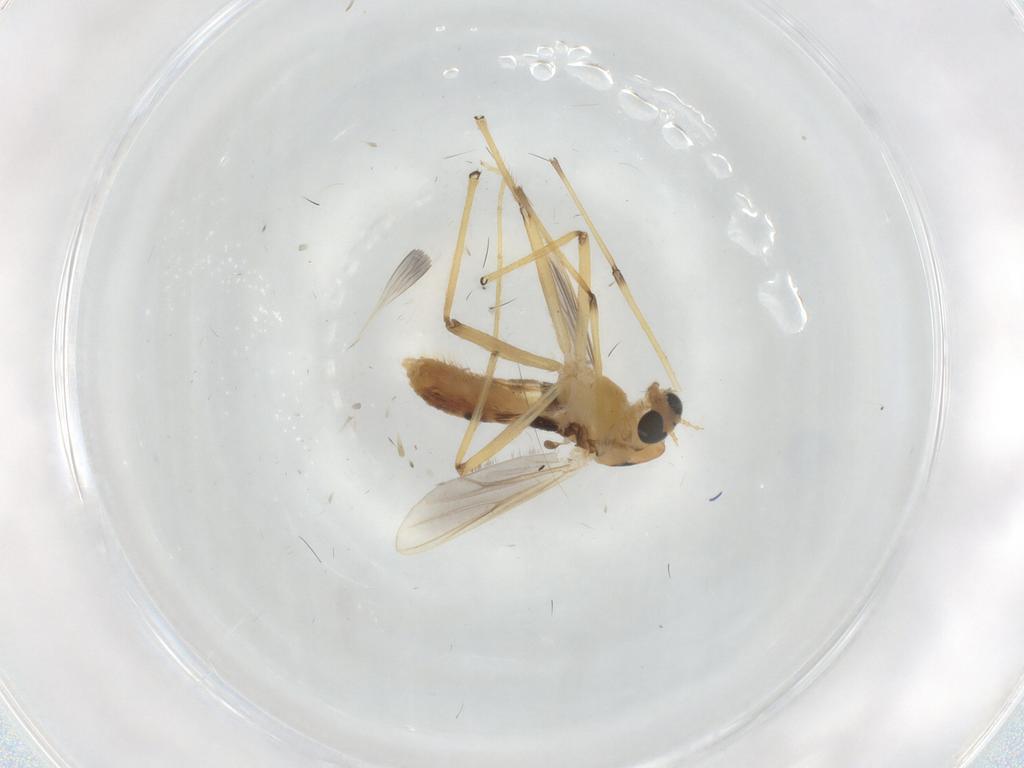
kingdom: Animalia
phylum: Arthropoda
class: Insecta
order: Diptera
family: Chironomidae
